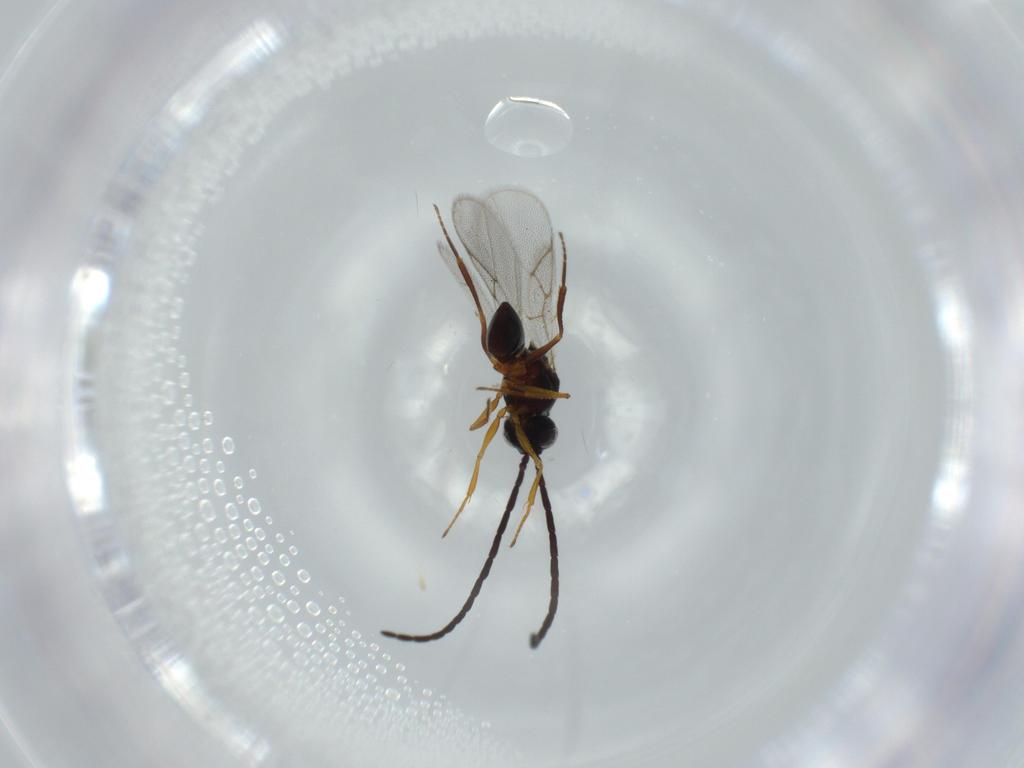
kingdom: Animalia
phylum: Arthropoda
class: Insecta
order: Hymenoptera
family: Figitidae
